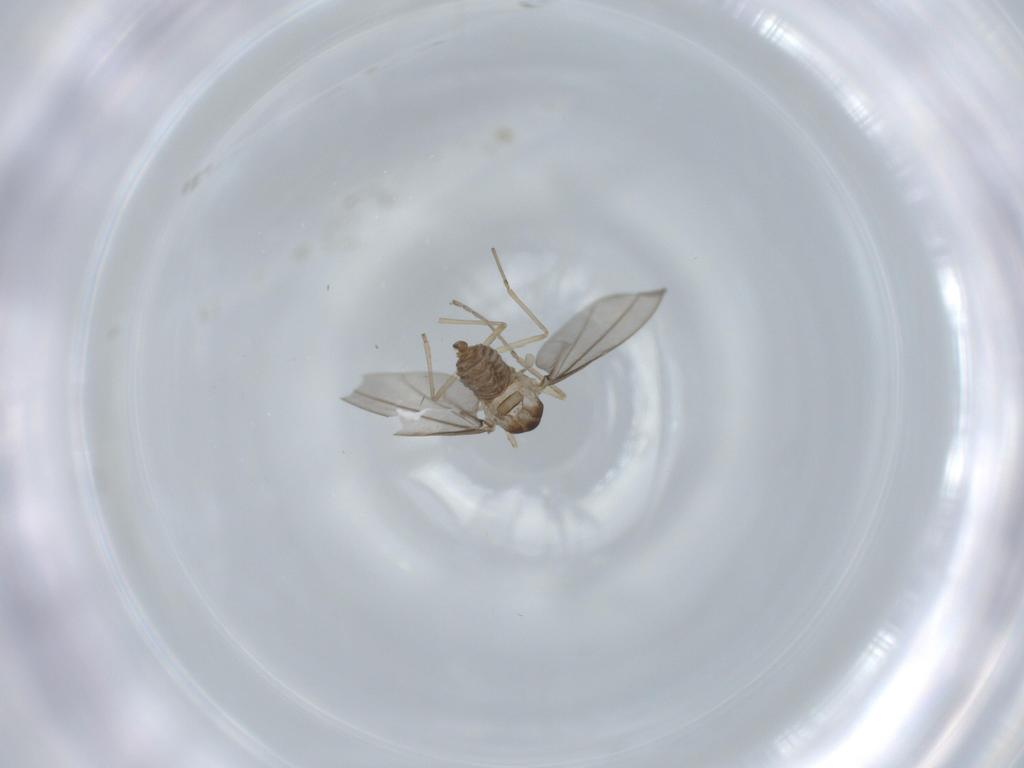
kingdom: Animalia
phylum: Arthropoda
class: Insecta
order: Diptera
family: Cecidomyiidae
